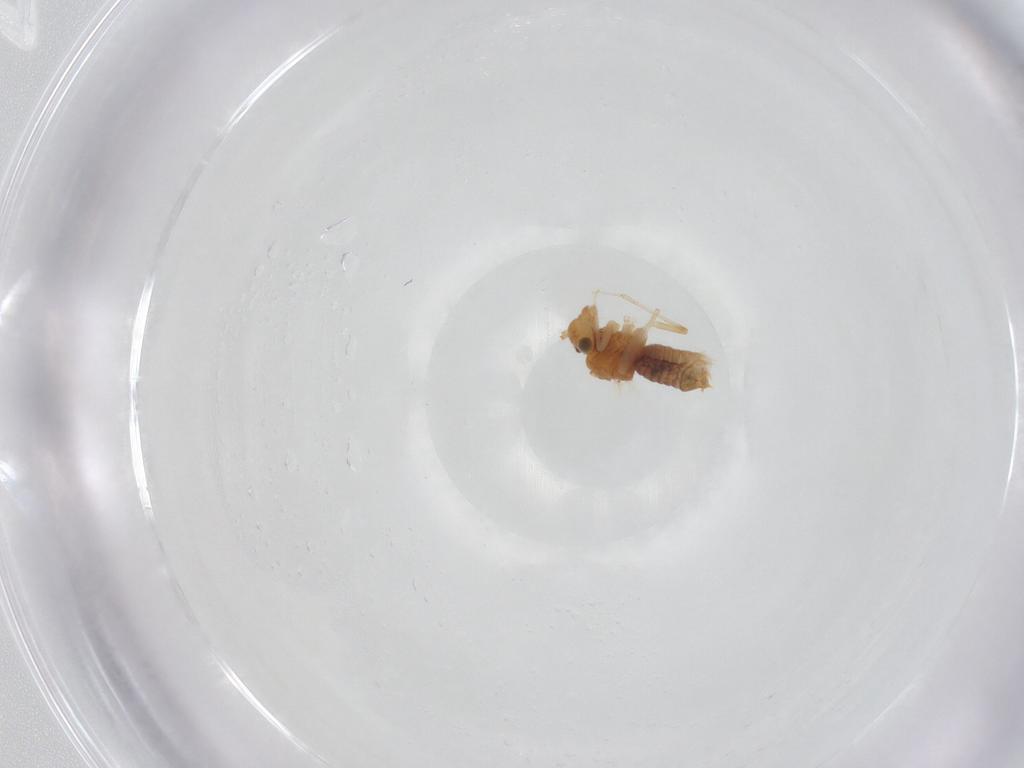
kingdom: Animalia
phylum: Arthropoda
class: Insecta
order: Psocodea
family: Lachesillidae
